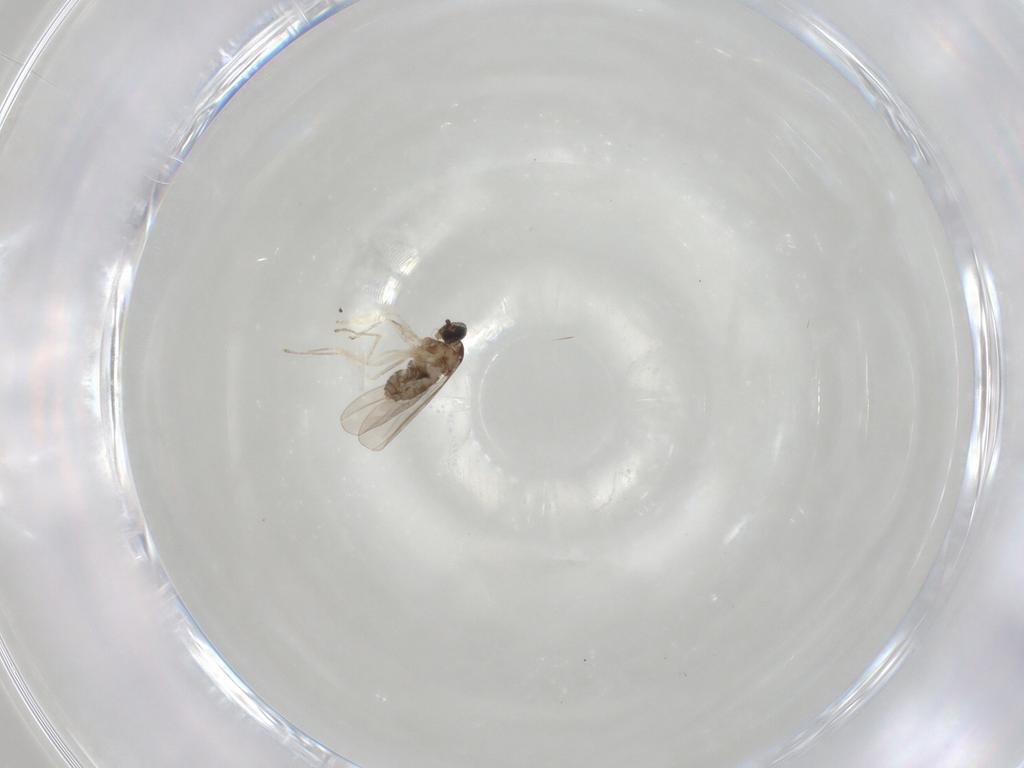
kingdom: Animalia
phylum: Arthropoda
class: Insecta
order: Diptera
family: Cecidomyiidae
